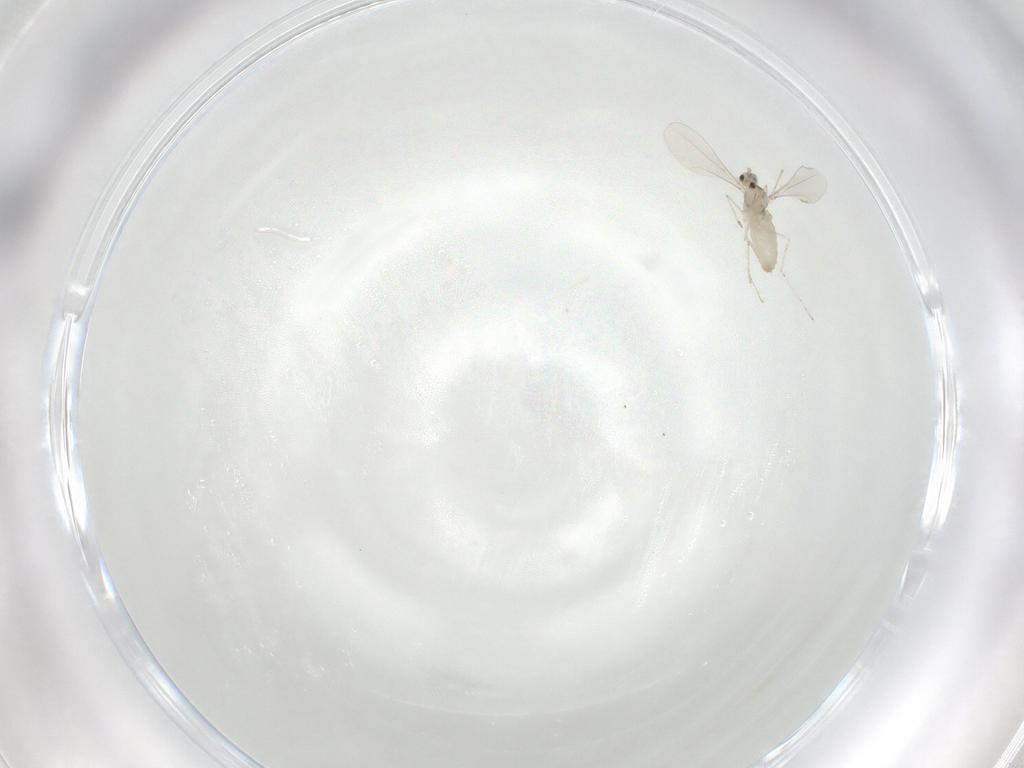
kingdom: Animalia
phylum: Arthropoda
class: Insecta
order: Diptera
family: Cecidomyiidae
